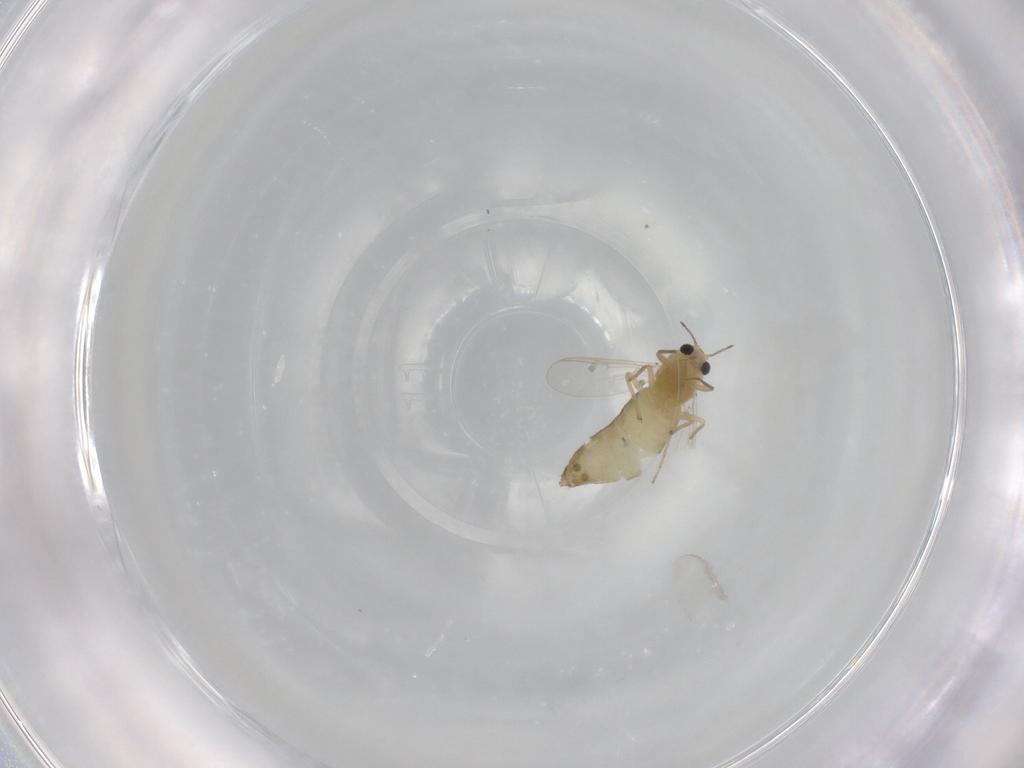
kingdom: Animalia
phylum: Arthropoda
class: Insecta
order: Diptera
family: Chironomidae
